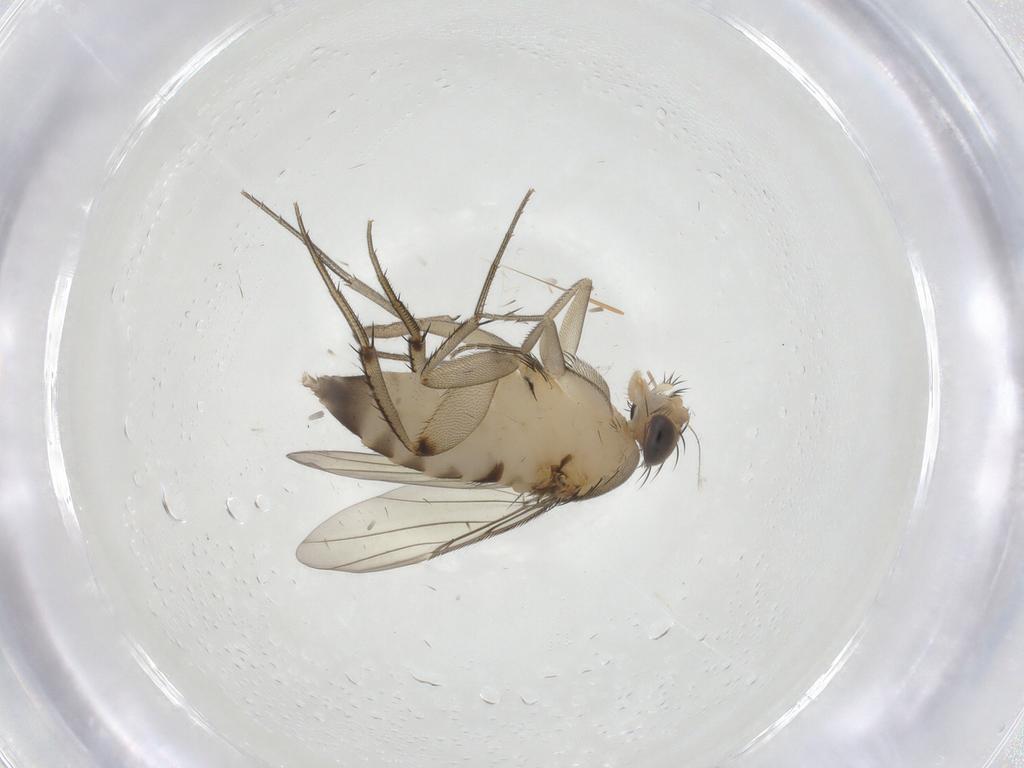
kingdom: Animalia
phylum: Arthropoda
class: Insecta
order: Diptera
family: Phoridae
